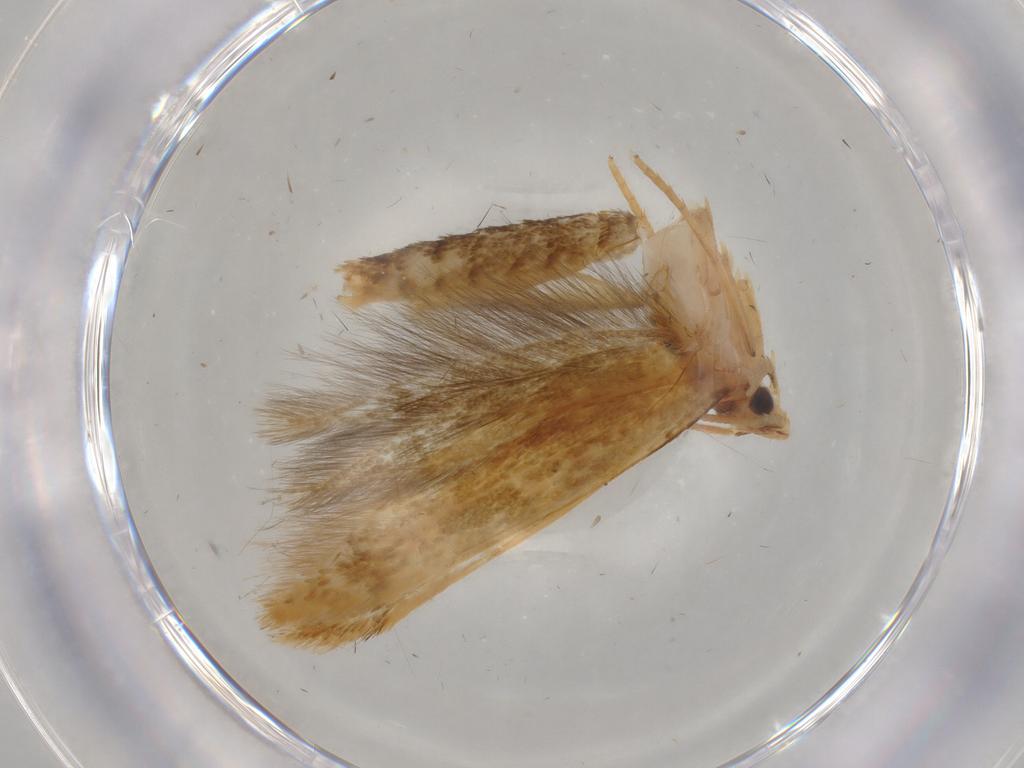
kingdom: Animalia
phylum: Arthropoda
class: Insecta
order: Lepidoptera
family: Tineidae
